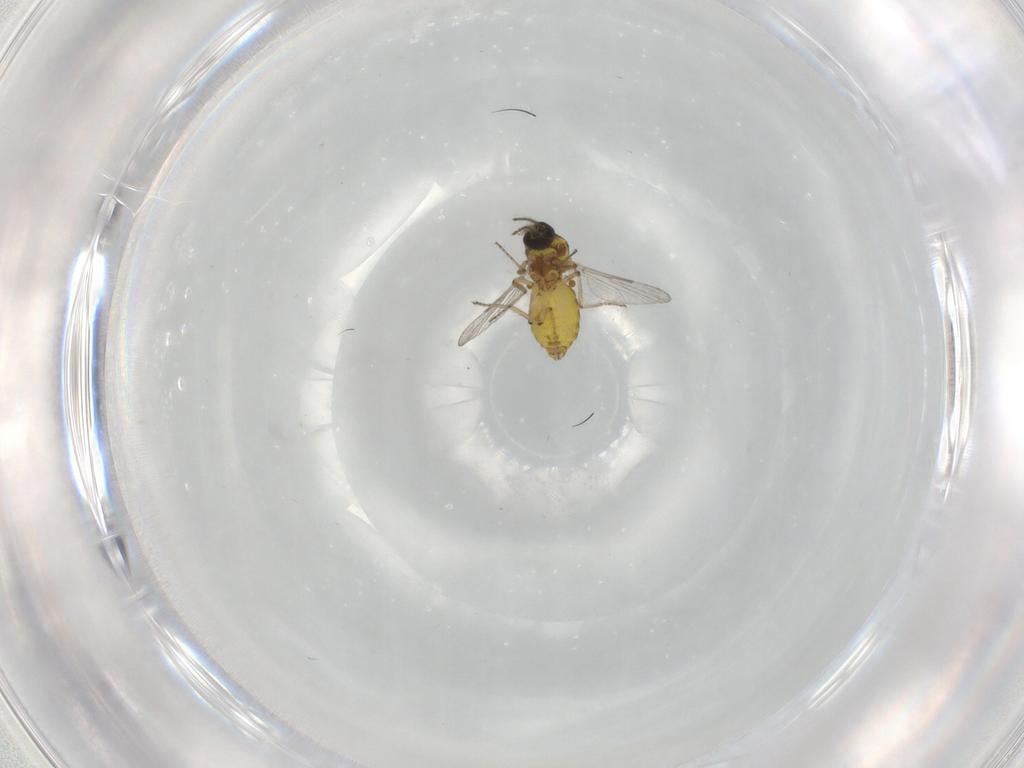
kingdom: Animalia
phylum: Arthropoda
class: Insecta
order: Diptera
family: Ceratopogonidae
